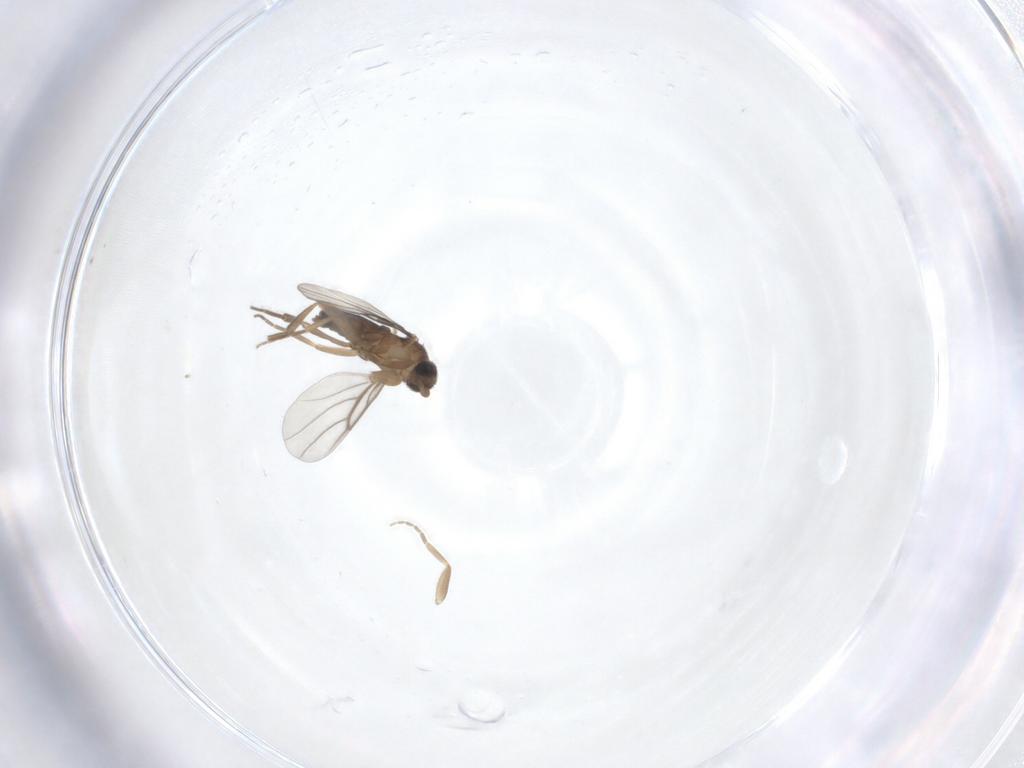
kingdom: Animalia
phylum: Arthropoda
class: Insecta
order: Diptera
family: Phoridae
